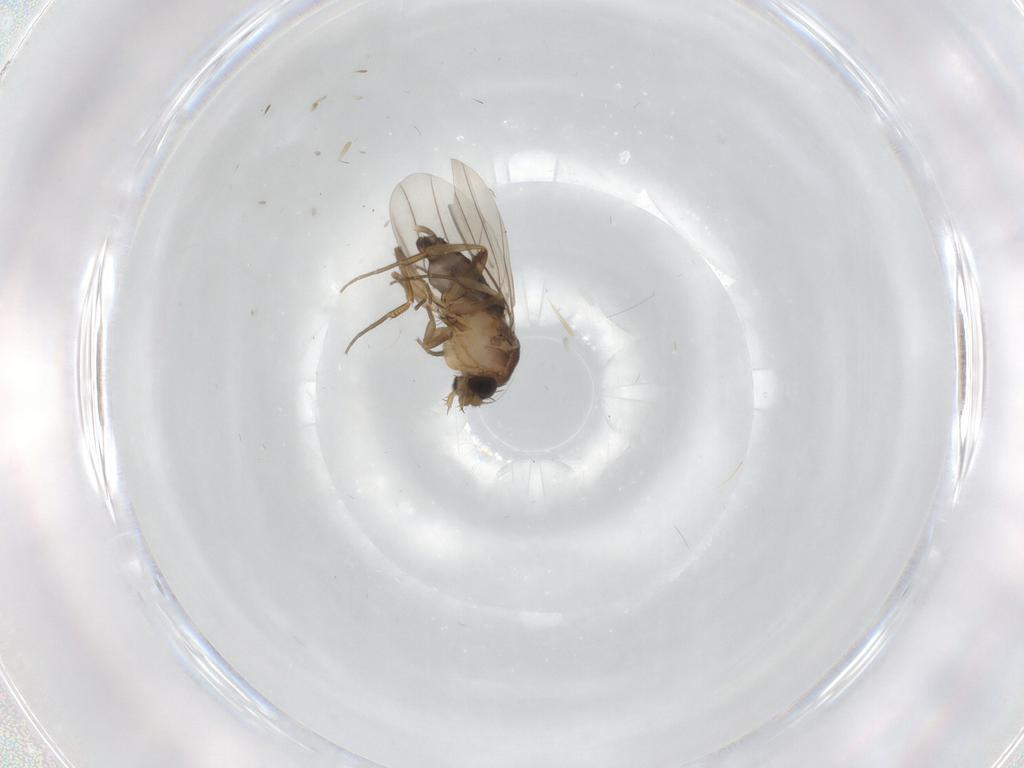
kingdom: Animalia
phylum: Arthropoda
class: Insecta
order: Diptera
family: Phoridae
